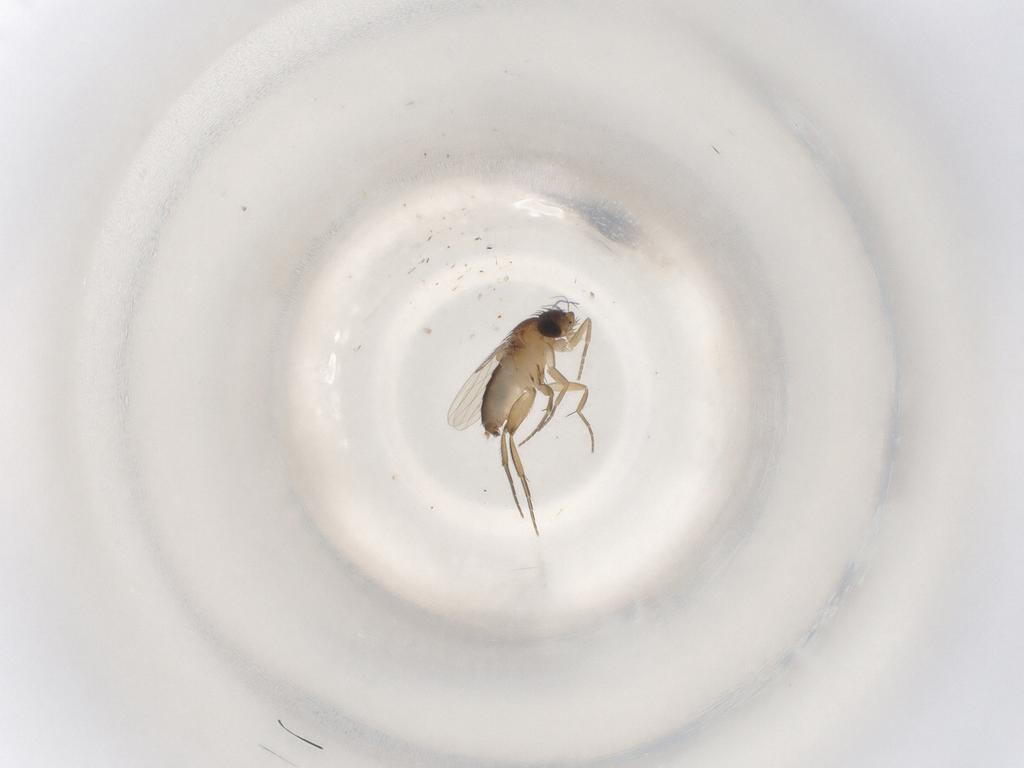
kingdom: Animalia
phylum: Arthropoda
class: Insecta
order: Diptera
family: Phoridae
